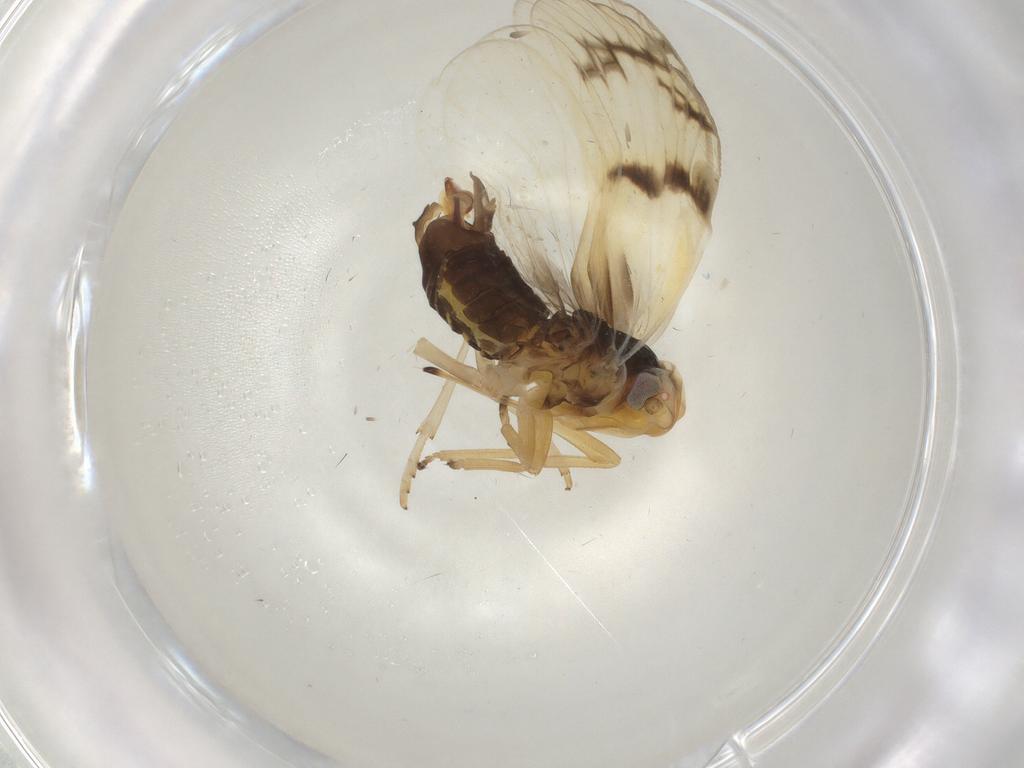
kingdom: Animalia
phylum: Arthropoda
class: Insecta
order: Hemiptera
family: Cixiidae
